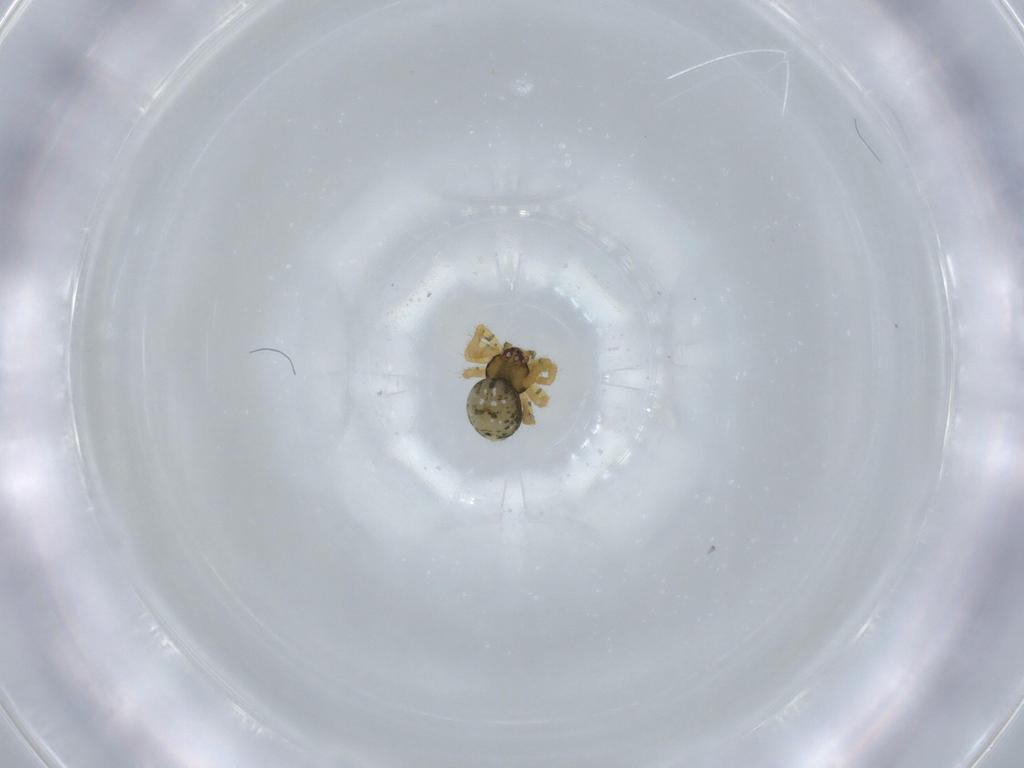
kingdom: Animalia
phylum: Arthropoda
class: Arachnida
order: Araneae
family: Theridiidae
